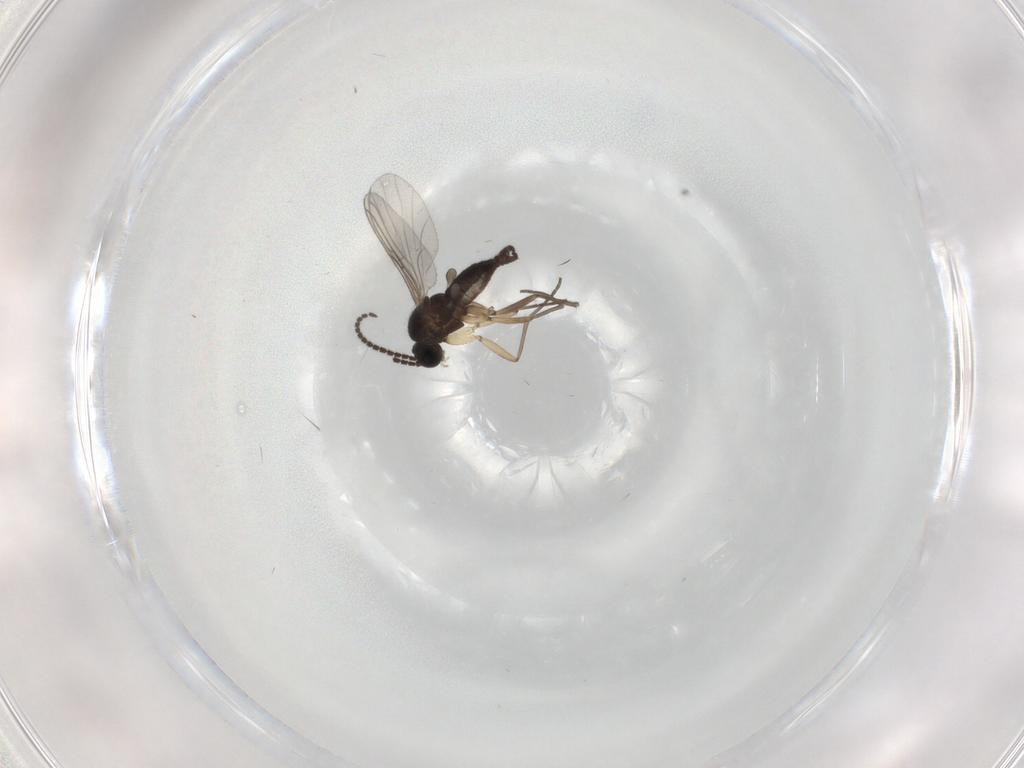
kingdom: Animalia
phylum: Arthropoda
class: Insecta
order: Diptera
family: Sciaridae
